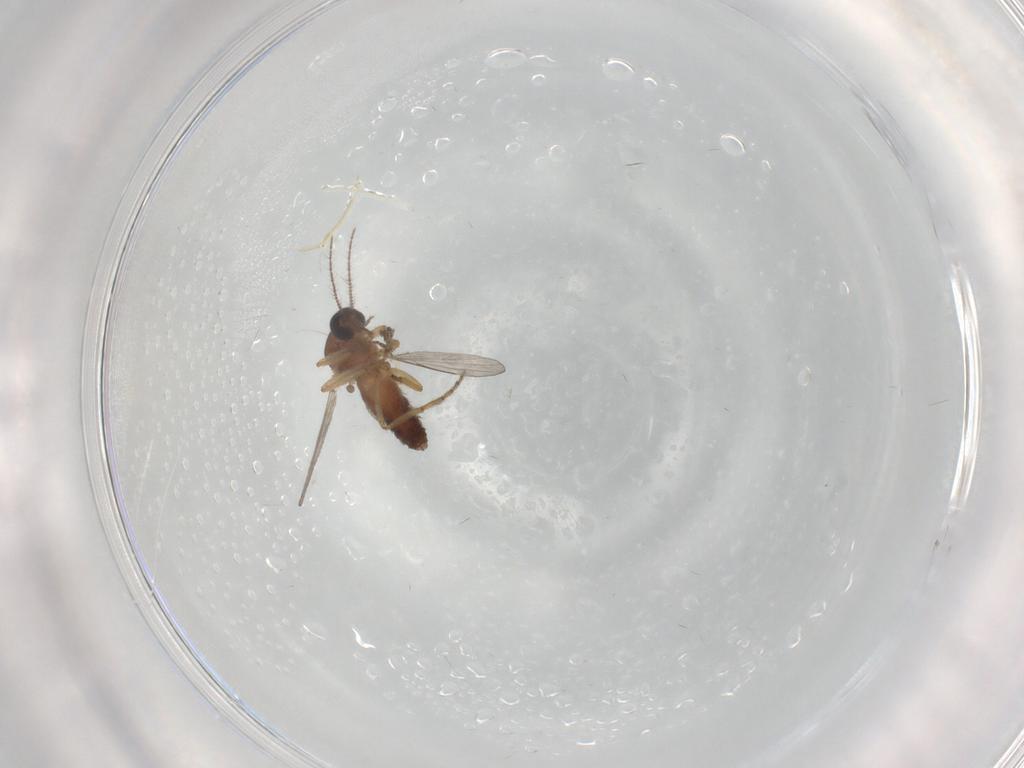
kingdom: Animalia
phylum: Arthropoda
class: Insecta
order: Diptera
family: Ceratopogonidae
